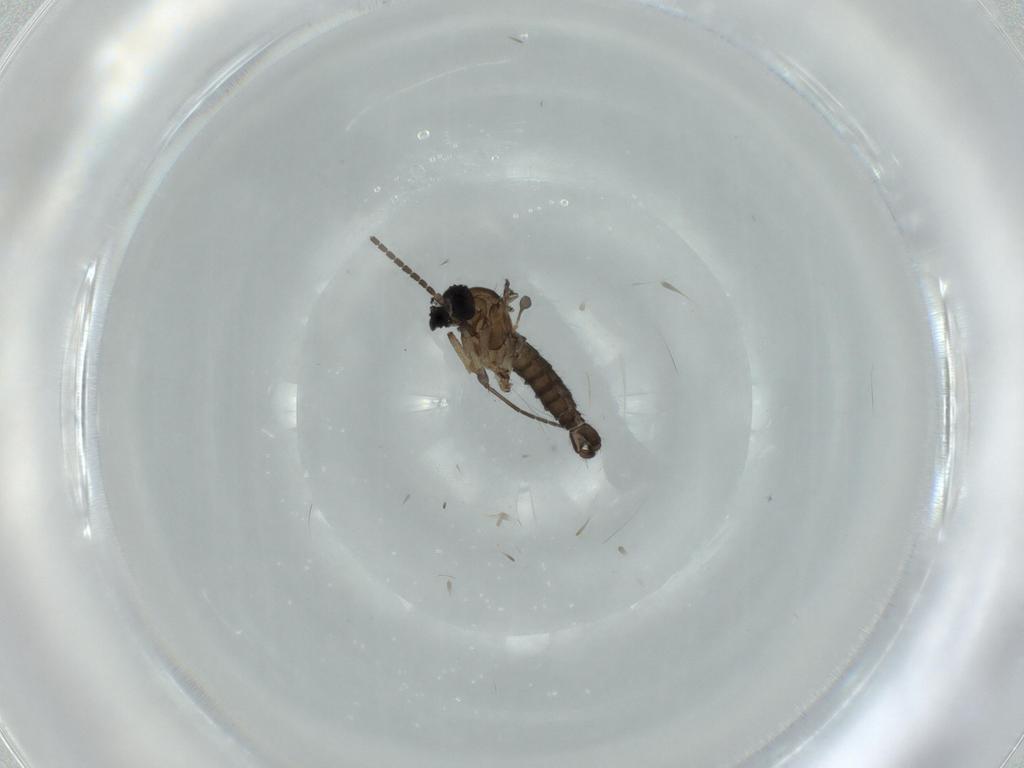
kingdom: Animalia
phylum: Arthropoda
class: Insecta
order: Diptera
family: Sciaridae
